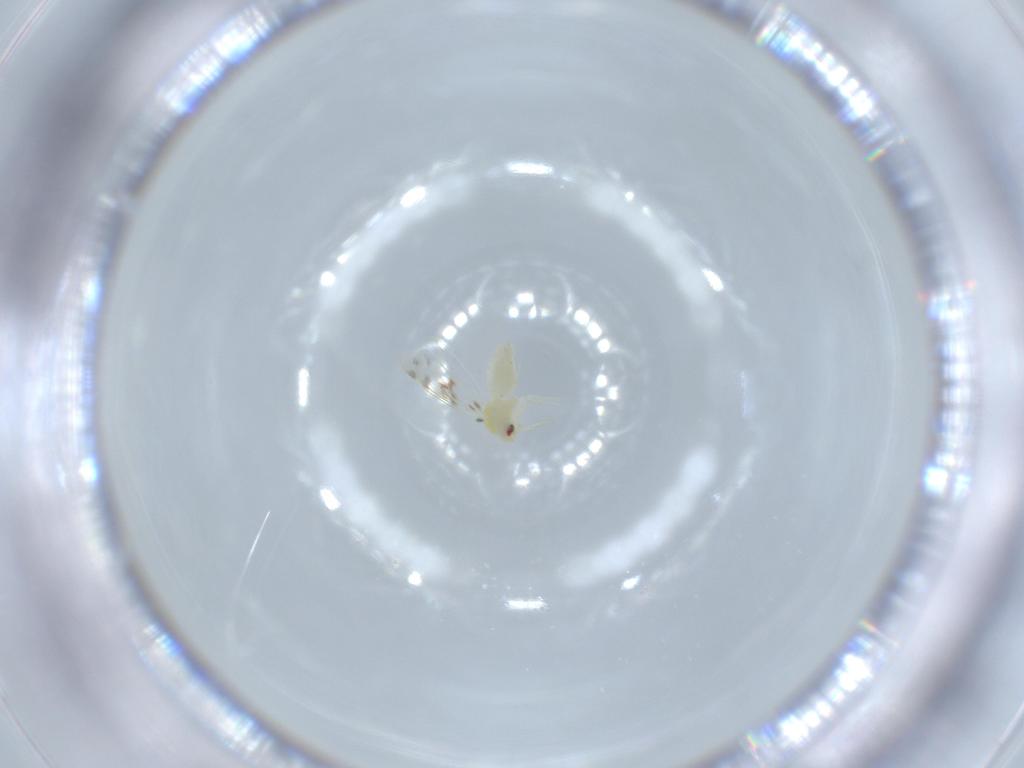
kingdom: Animalia
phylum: Arthropoda
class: Insecta
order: Hemiptera
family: Aleyrodidae
